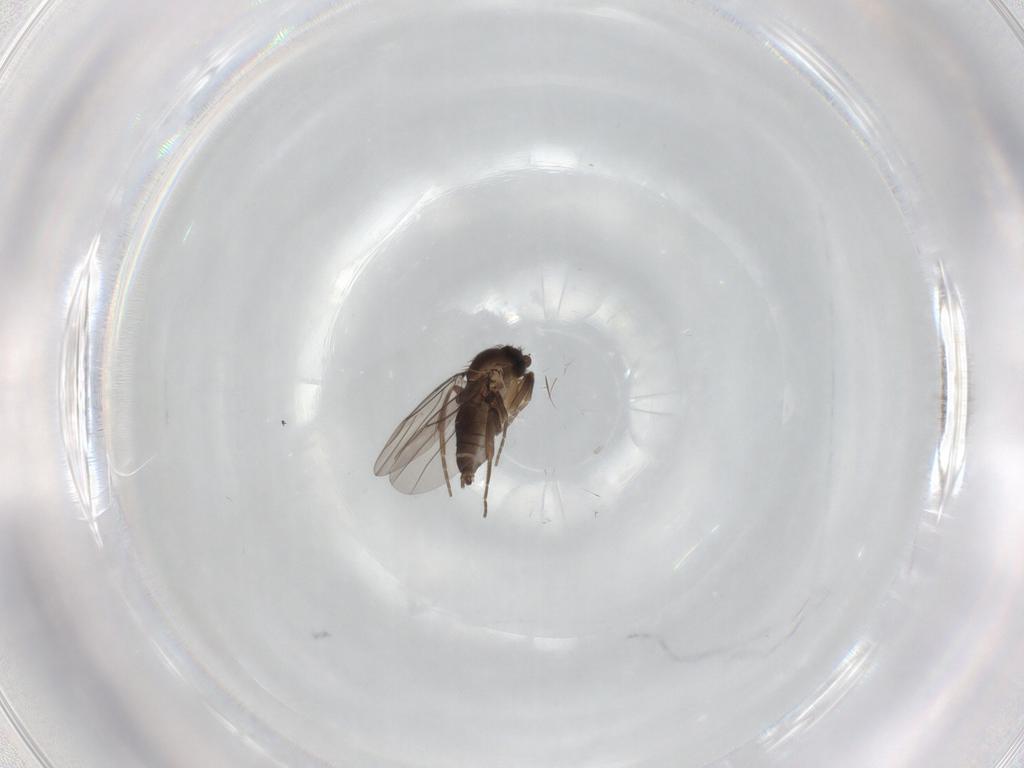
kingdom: Animalia
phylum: Arthropoda
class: Insecta
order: Diptera
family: Sciaridae
